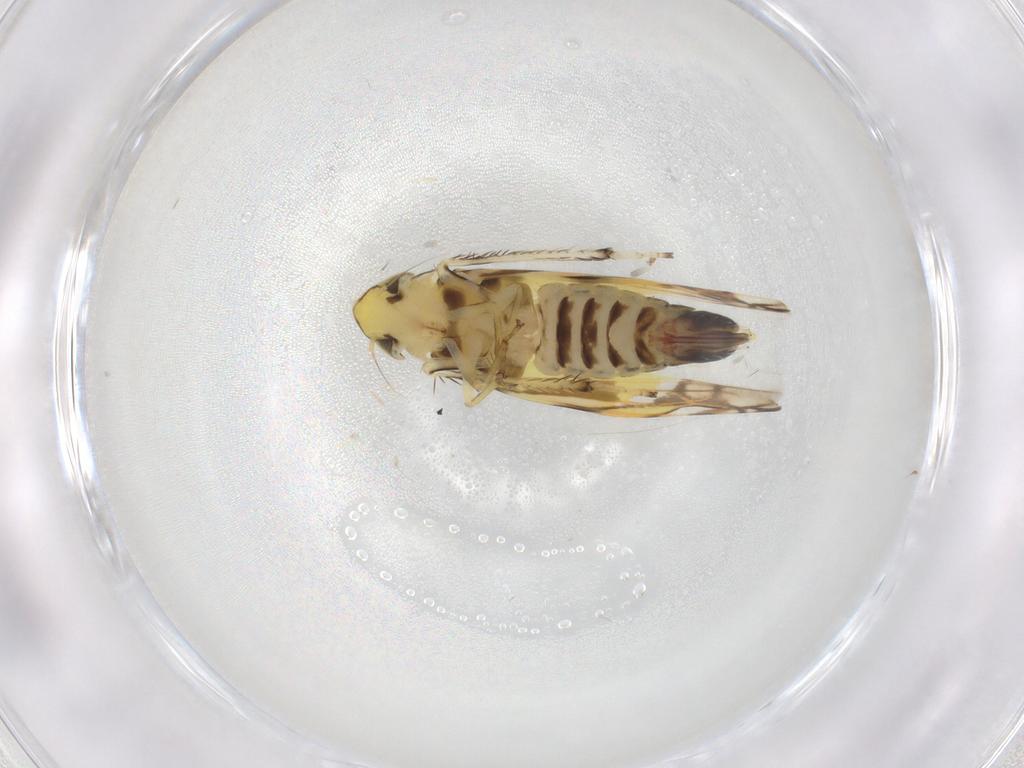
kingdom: Animalia
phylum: Arthropoda
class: Insecta
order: Hemiptera
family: Cicadellidae
